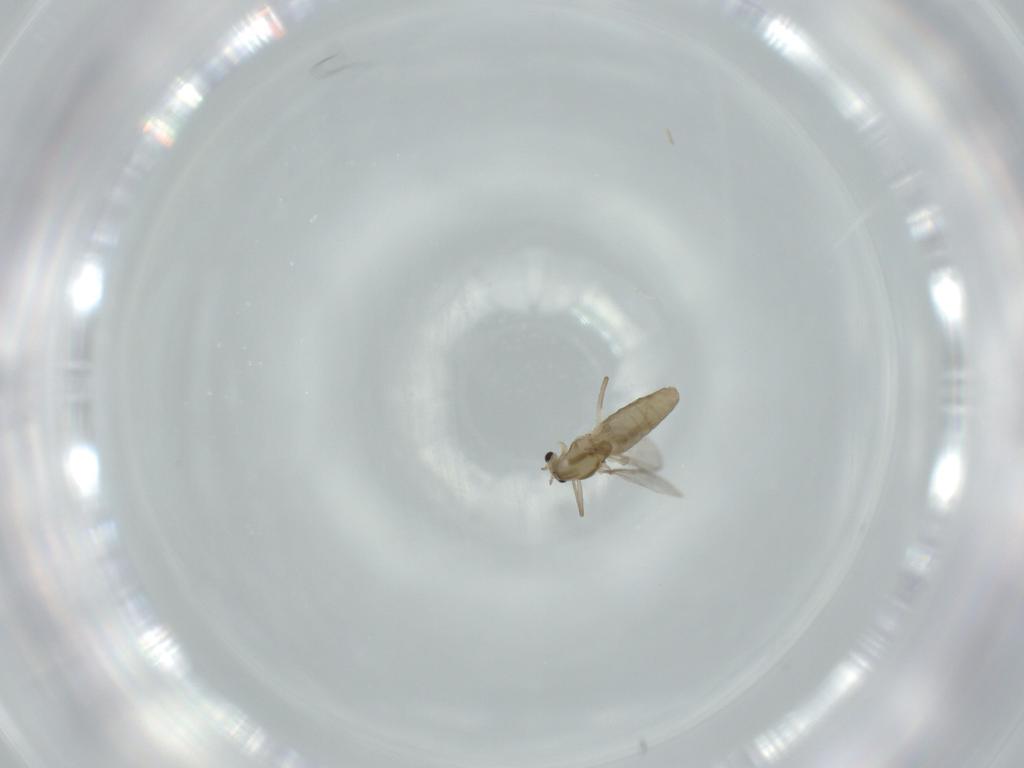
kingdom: Animalia
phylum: Arthropoda
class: Insecta
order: Diptera
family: Chironomidae
